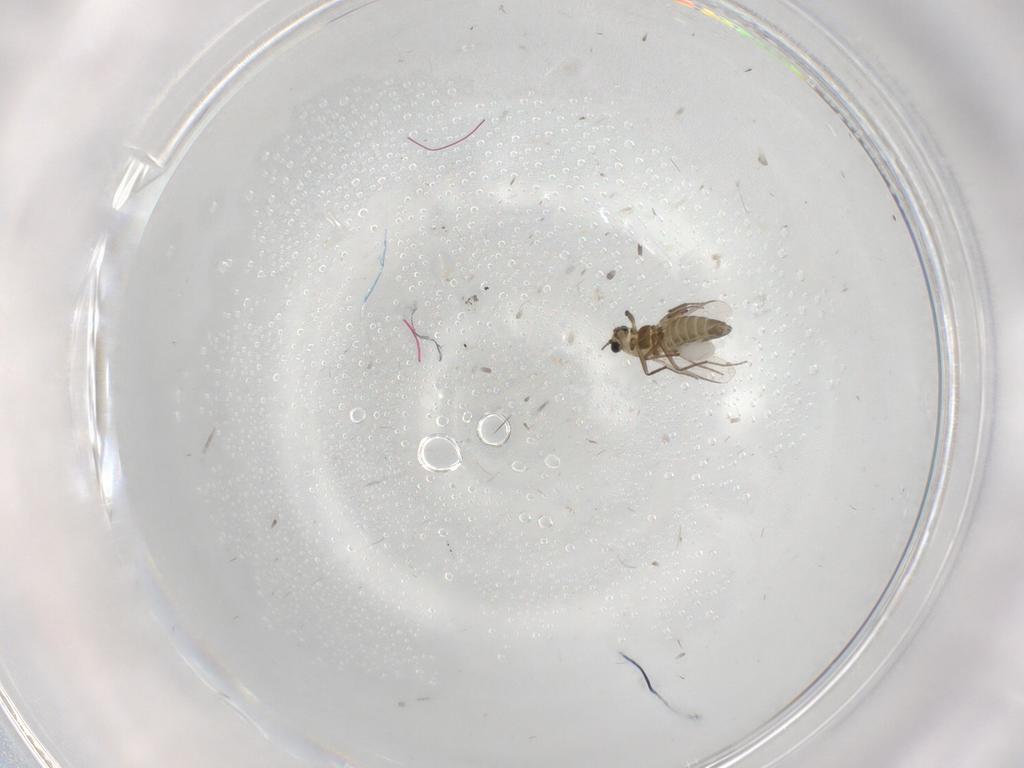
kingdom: Animalia
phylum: Arthropoda
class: Insecta
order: Diptera
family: Chironomidae
